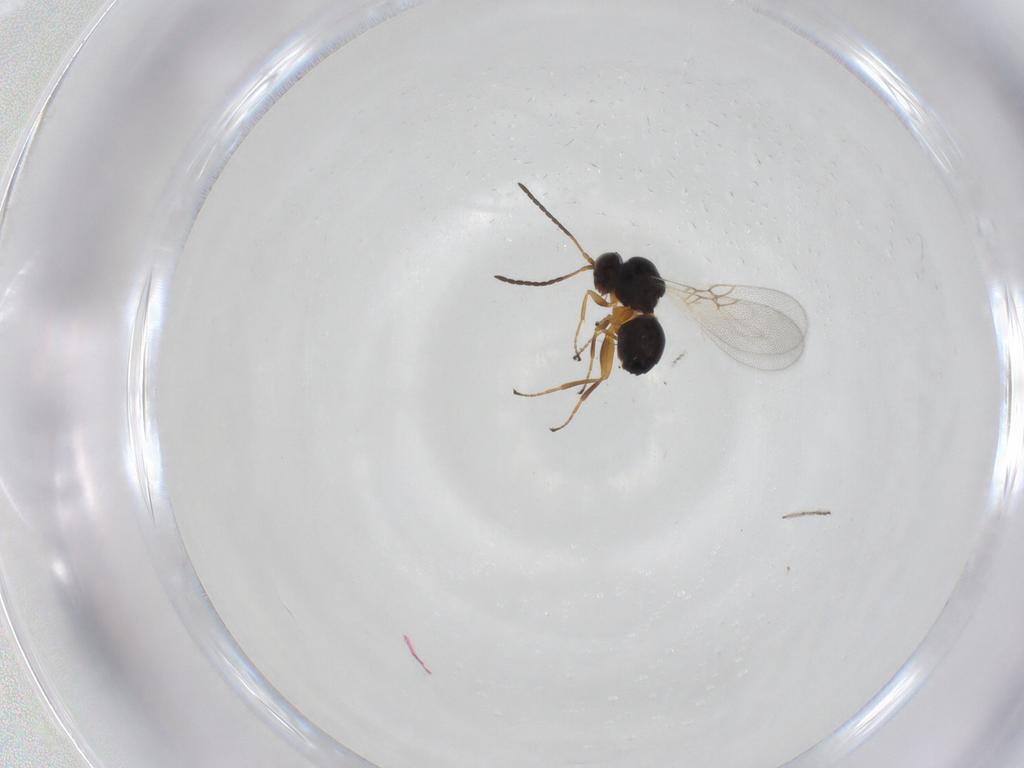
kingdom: Animalia
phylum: Arthropoda
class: Insecta
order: Hymenoptera
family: Figitidae
